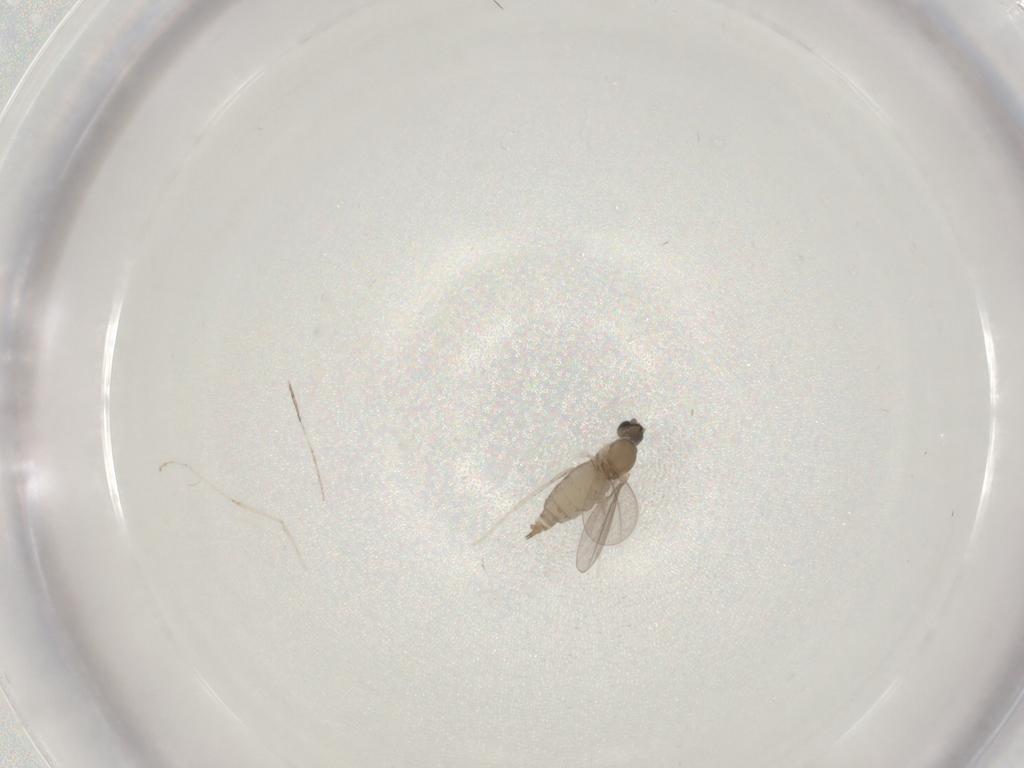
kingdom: Animalia
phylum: Arthropoda
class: Insecta
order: Diptera
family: Cecidomyiidae
